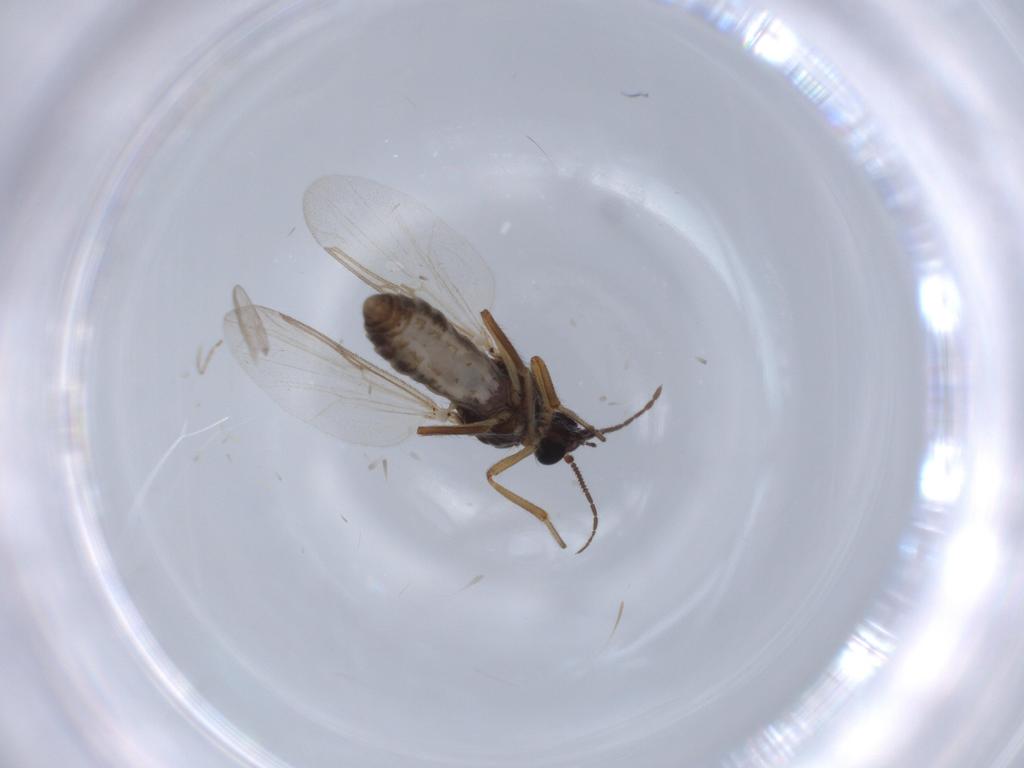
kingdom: Animalia
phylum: Arthropoda
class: Insecta
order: Diptera
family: Ceratopogonidae
